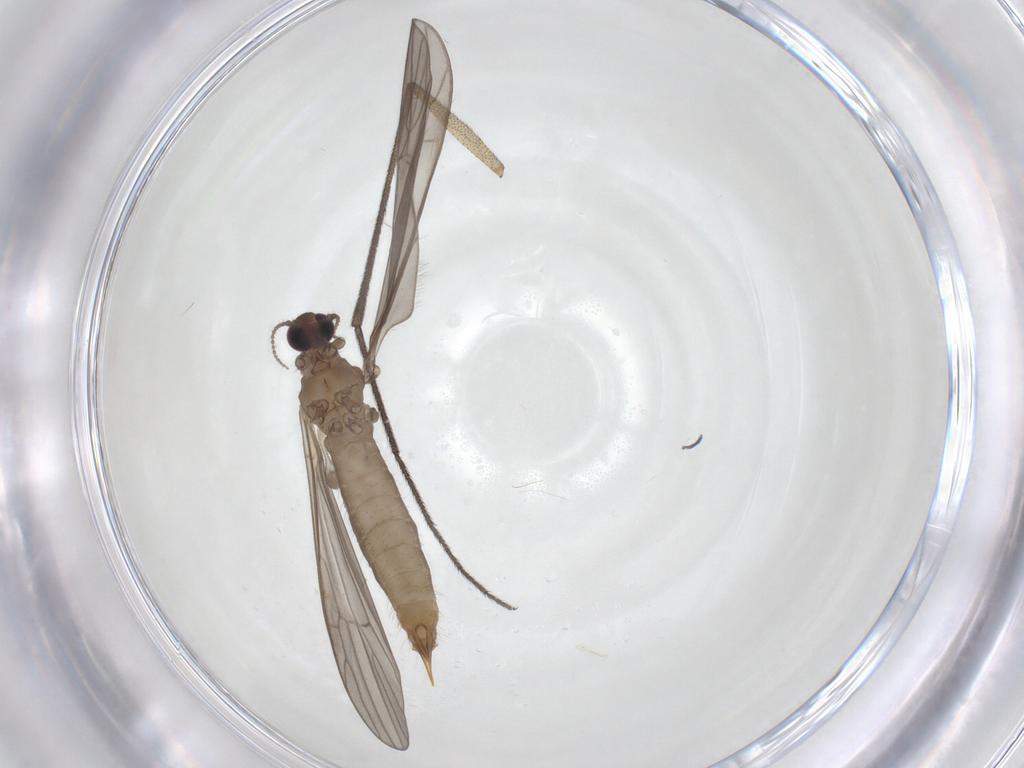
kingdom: Animalia
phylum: Arthropoda
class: Insecta
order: Diptera
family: Limoniidae
